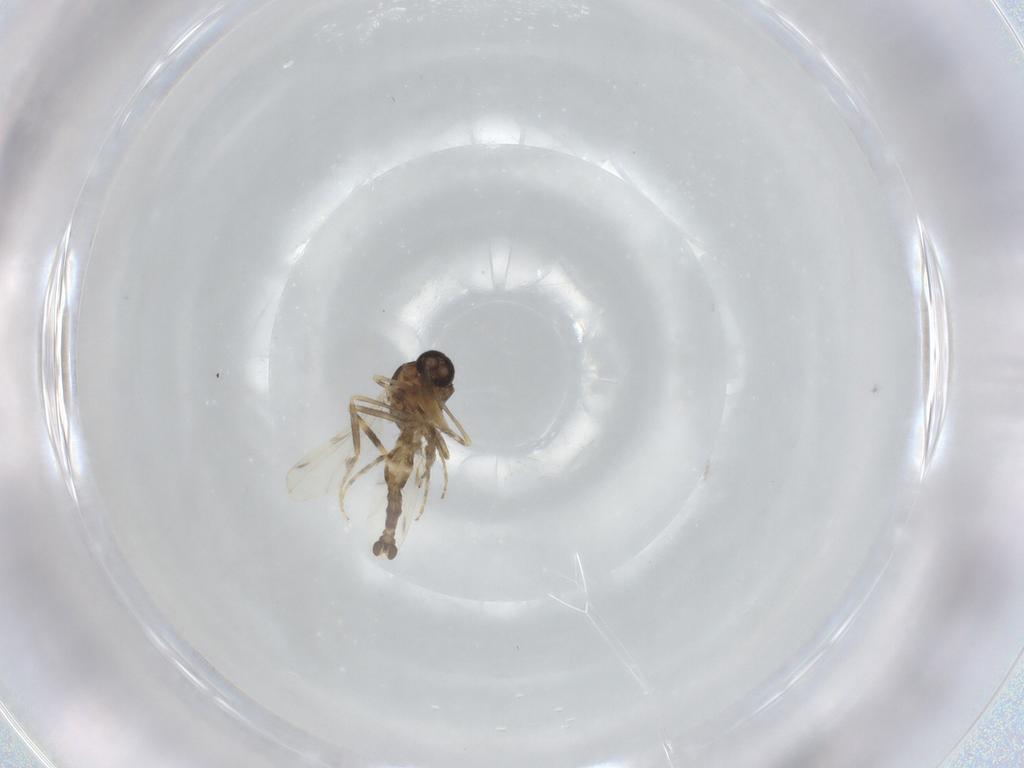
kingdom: Animalia
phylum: Arthropoda
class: Insecta
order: Diptera
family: Ceratopogonidae
